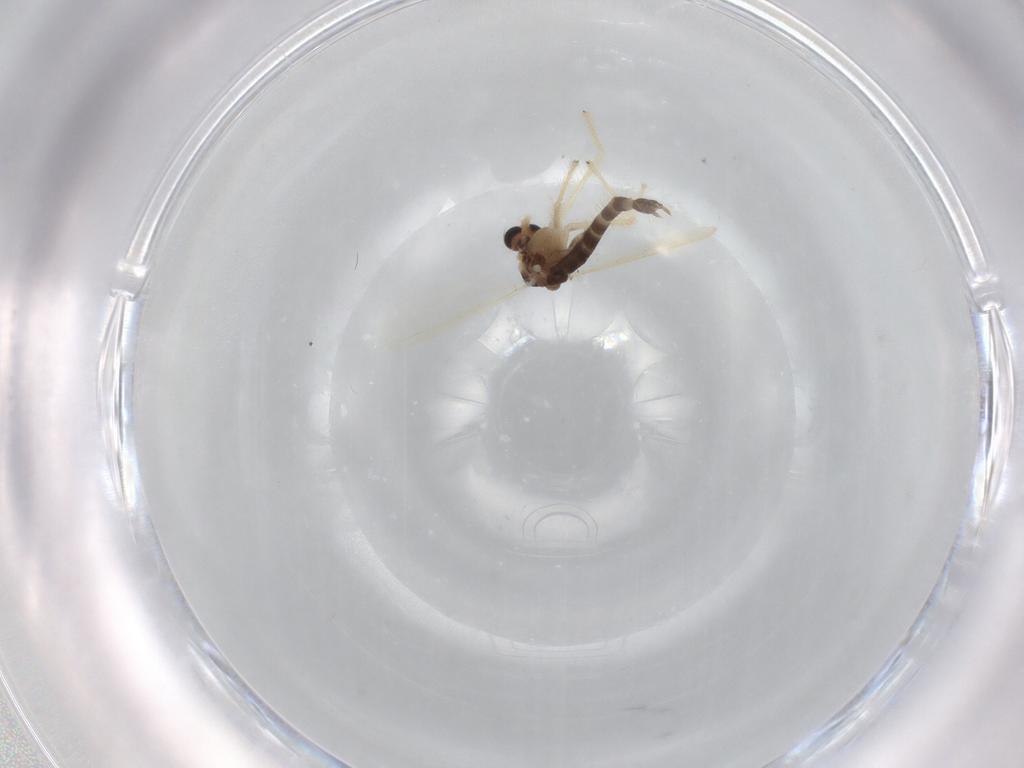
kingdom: Animalia
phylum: Arthropoda
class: Insecta
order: Diptera
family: Chironomidae
